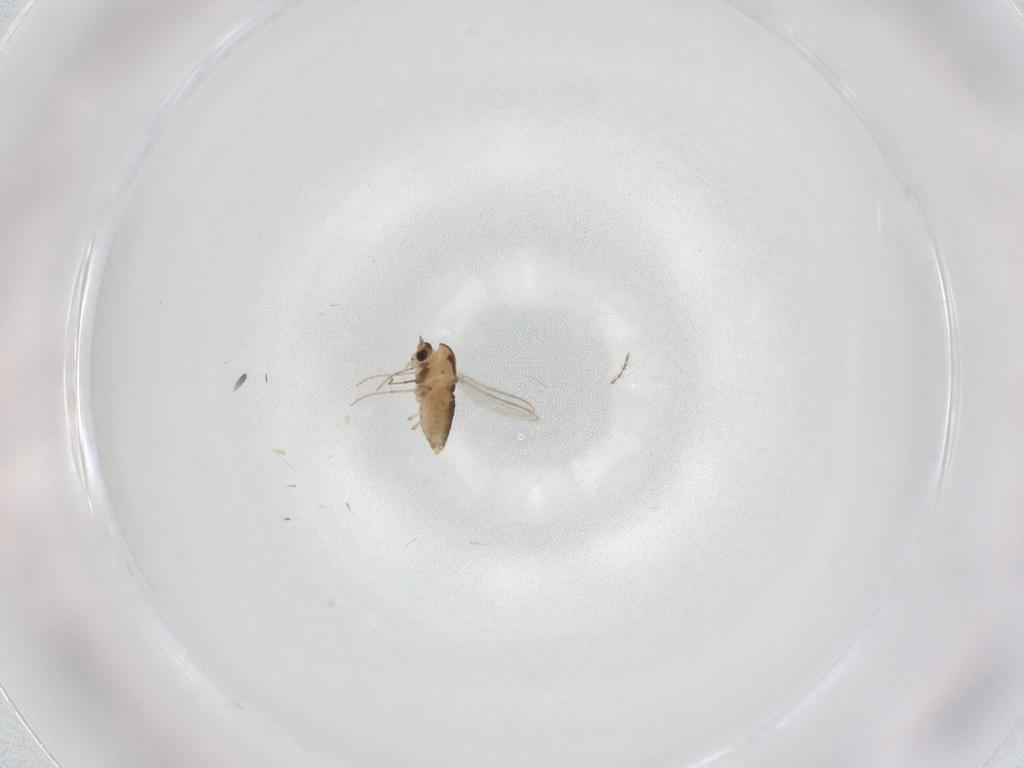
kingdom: Animalia
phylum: Arthropoda
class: Insecta
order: Diptera
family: Chironomidae
